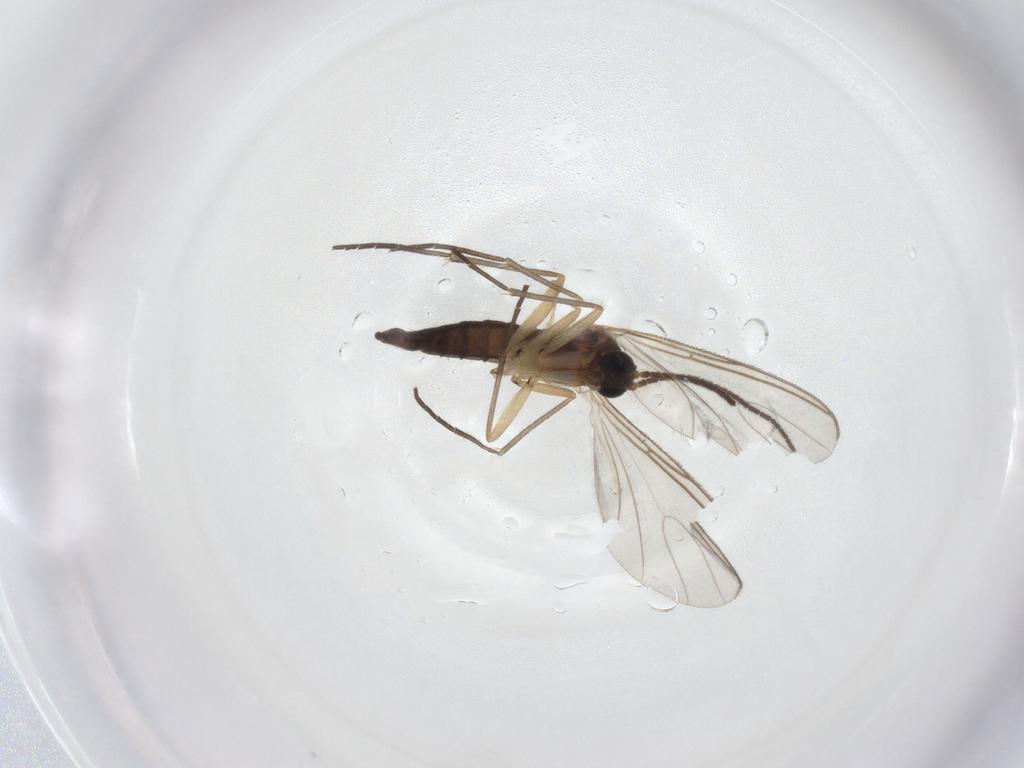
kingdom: Animalia
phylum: Arthropoda
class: Insecta
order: Diptera
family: Sciaridae
